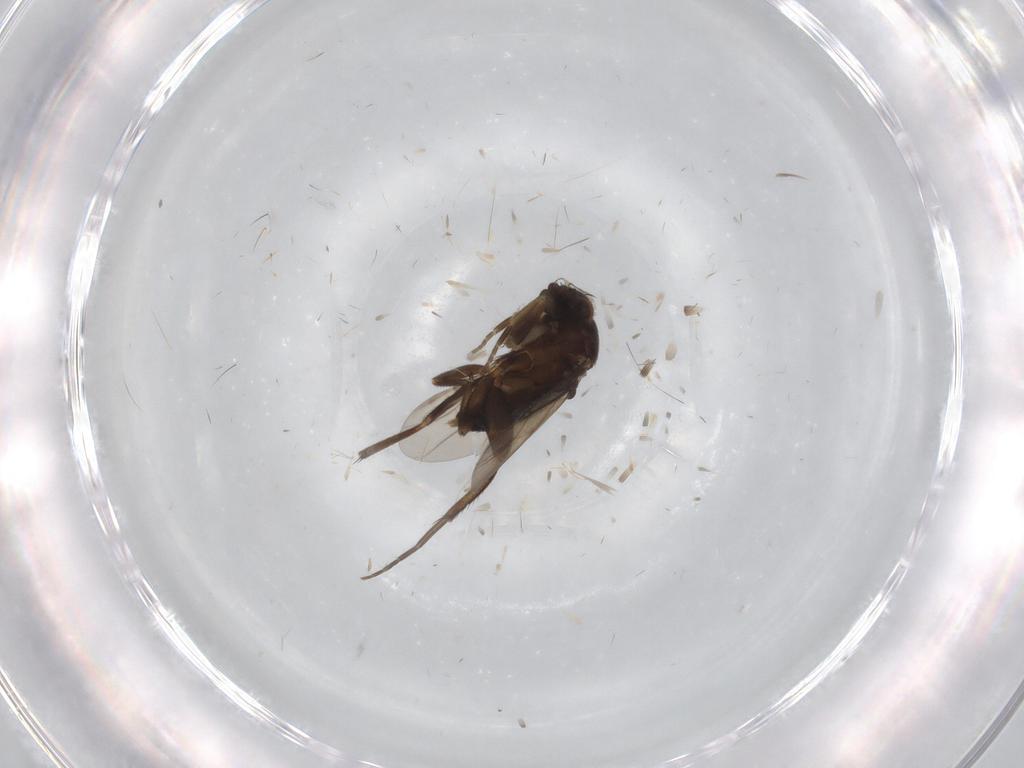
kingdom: Animalia
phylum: Arthropoda
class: Insecta
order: Diptera
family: Phoridae
